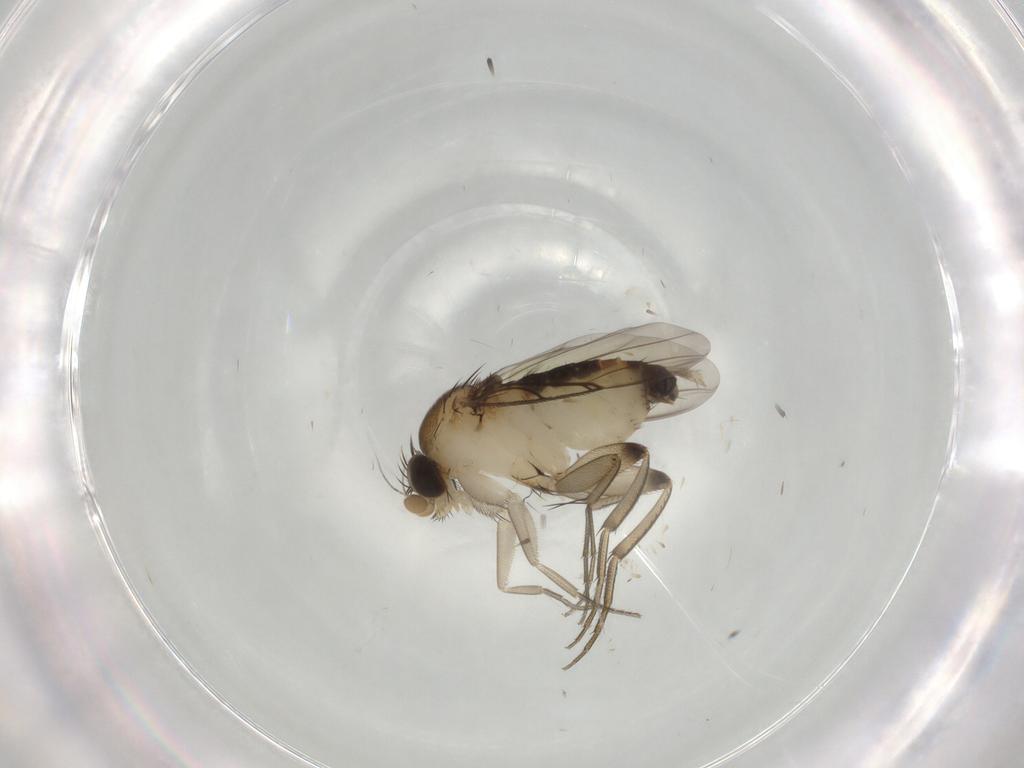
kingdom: Animalia
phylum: Arthropoda
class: Insecta
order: Diptera
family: Phoridae
